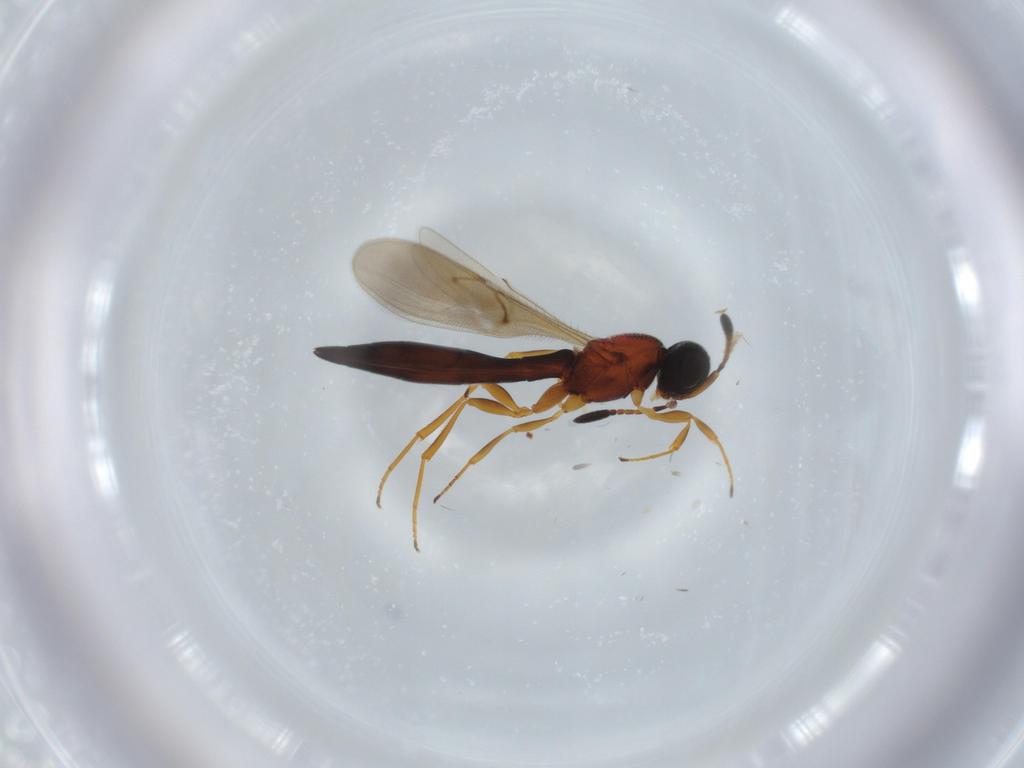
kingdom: Animalia
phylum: Arthropoda
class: Insecta
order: Hymenoptera
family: Scelionidae
